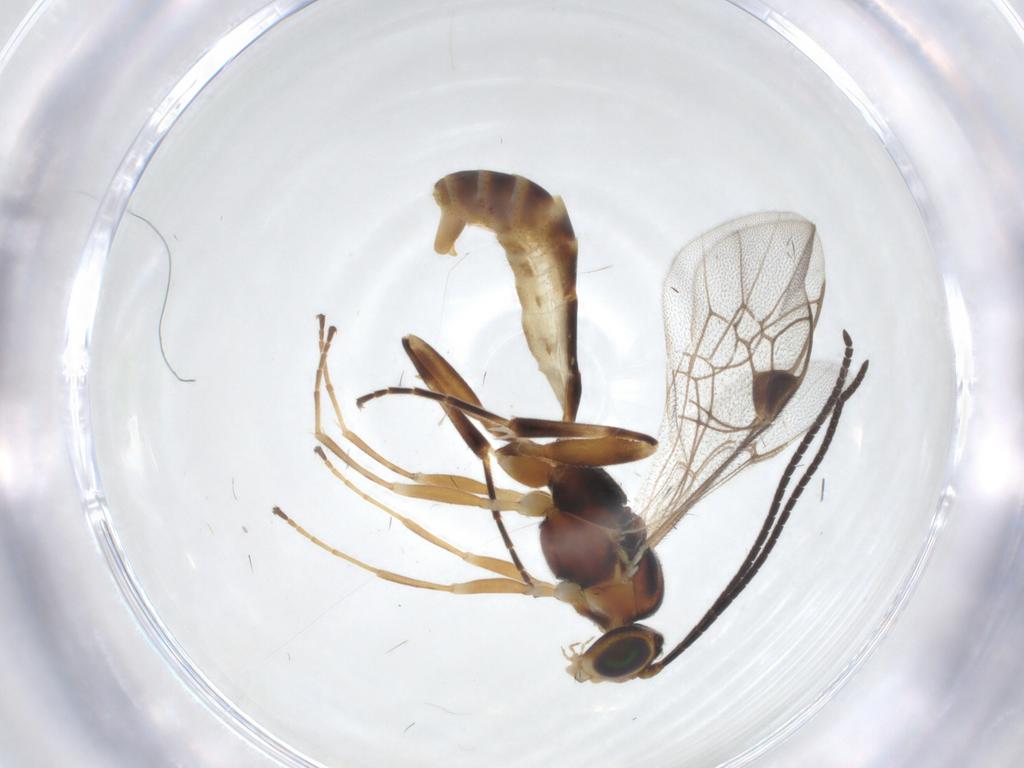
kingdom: Animalia
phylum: Arthropoda
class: Insecta
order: Hymenoptera
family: Ichneumonidae
